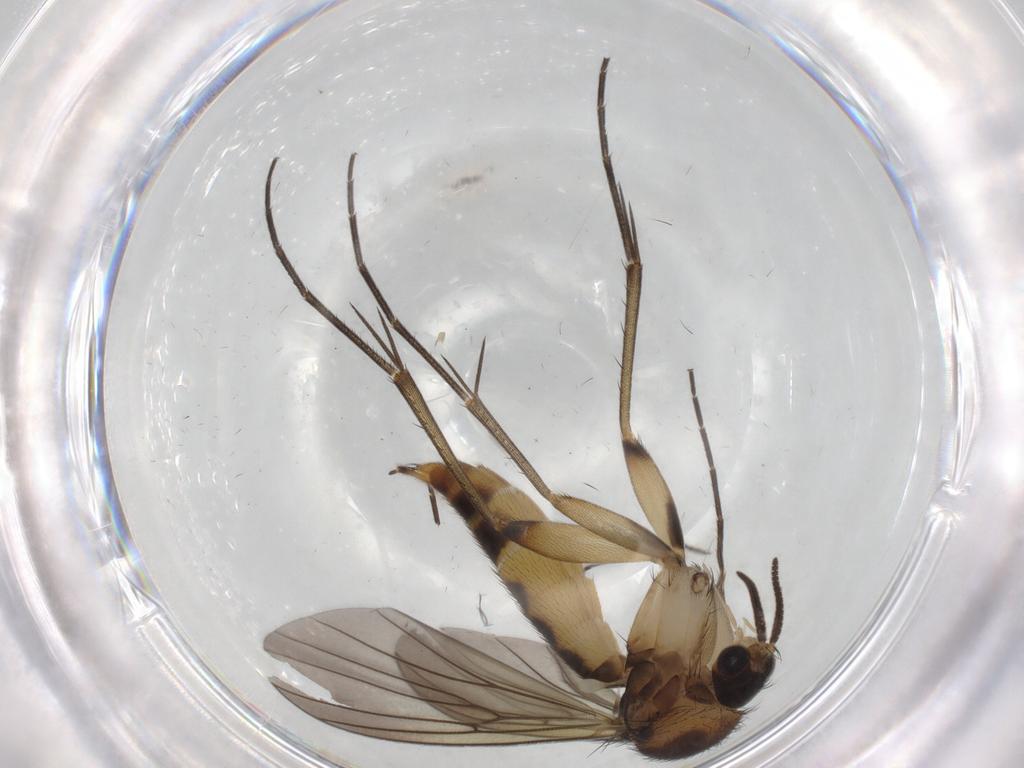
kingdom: Animalia
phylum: Arthropoda
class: Insecta
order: Diptera
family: Mycetophilidae
